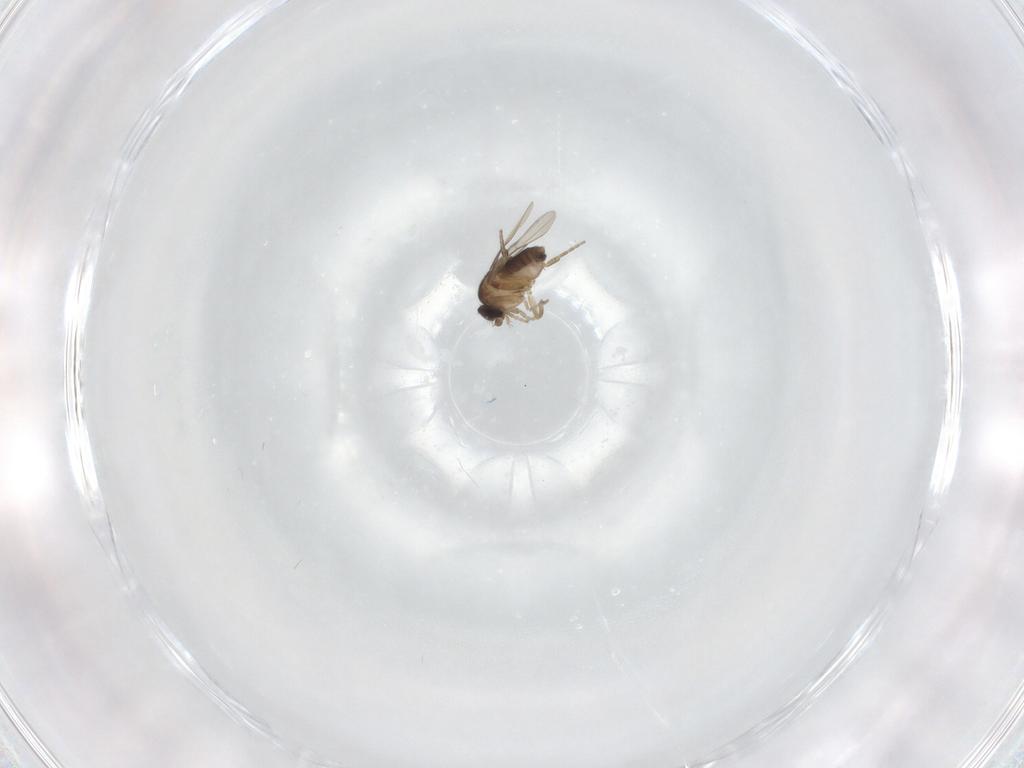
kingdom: Animalia
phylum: Arthropoda
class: Insecta
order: Diptera
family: Phoridae
